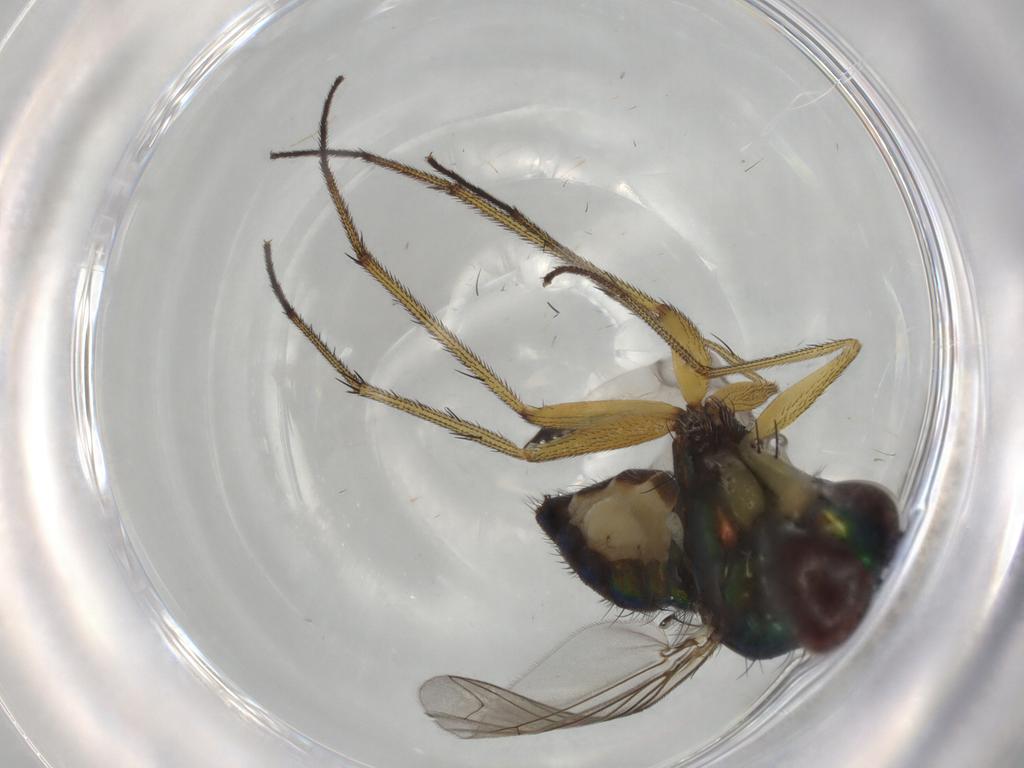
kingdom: Animalia
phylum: Arthropoda
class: Insecta
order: Diptera
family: Dolichopodidae
